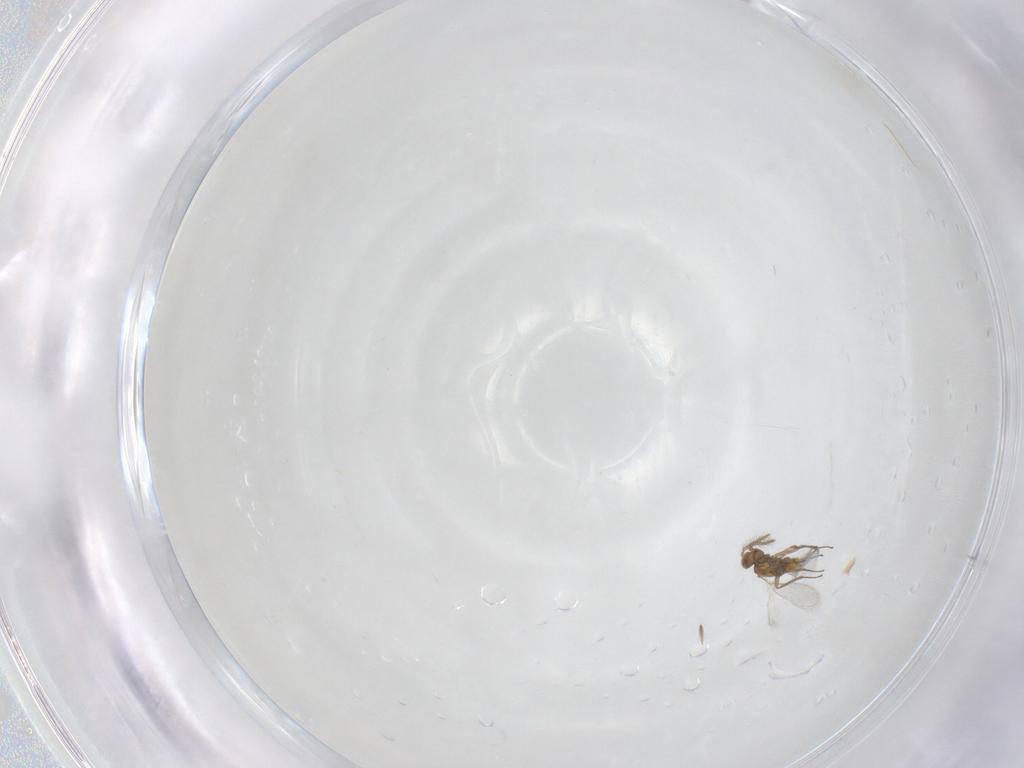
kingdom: Animalia
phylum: Arthropoda
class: Insecta
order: Hymenoptera
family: Aphelinidae
